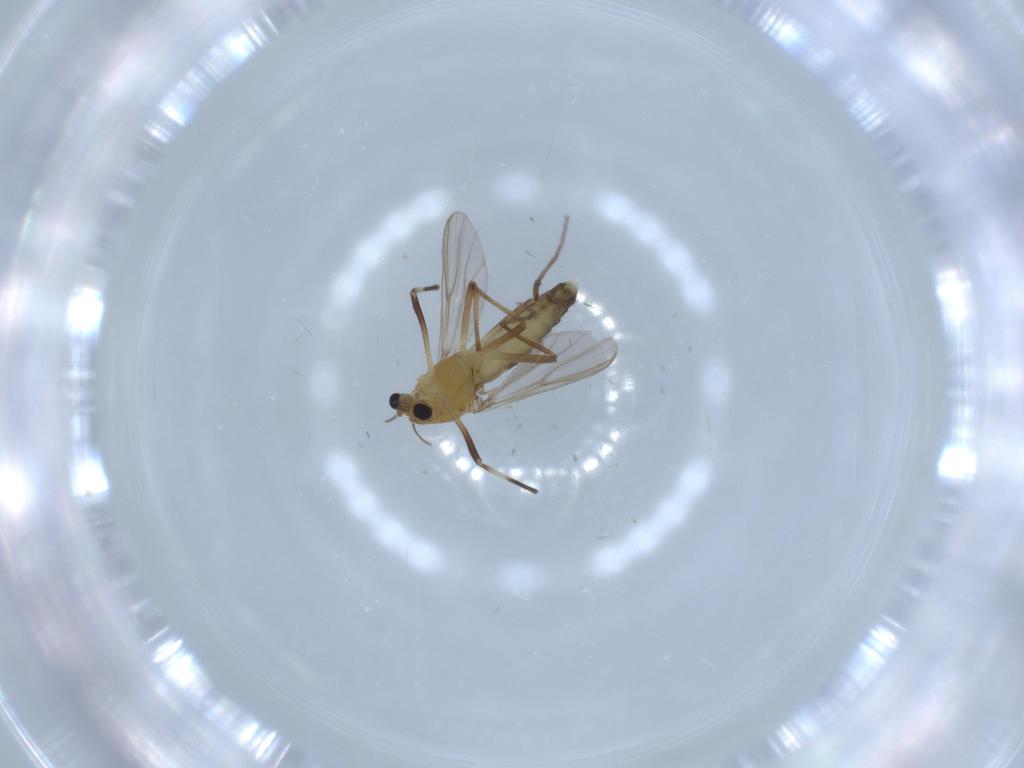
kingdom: Animalia
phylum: Arthropoda
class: Insecta
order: Diptera
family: Chironomidae
